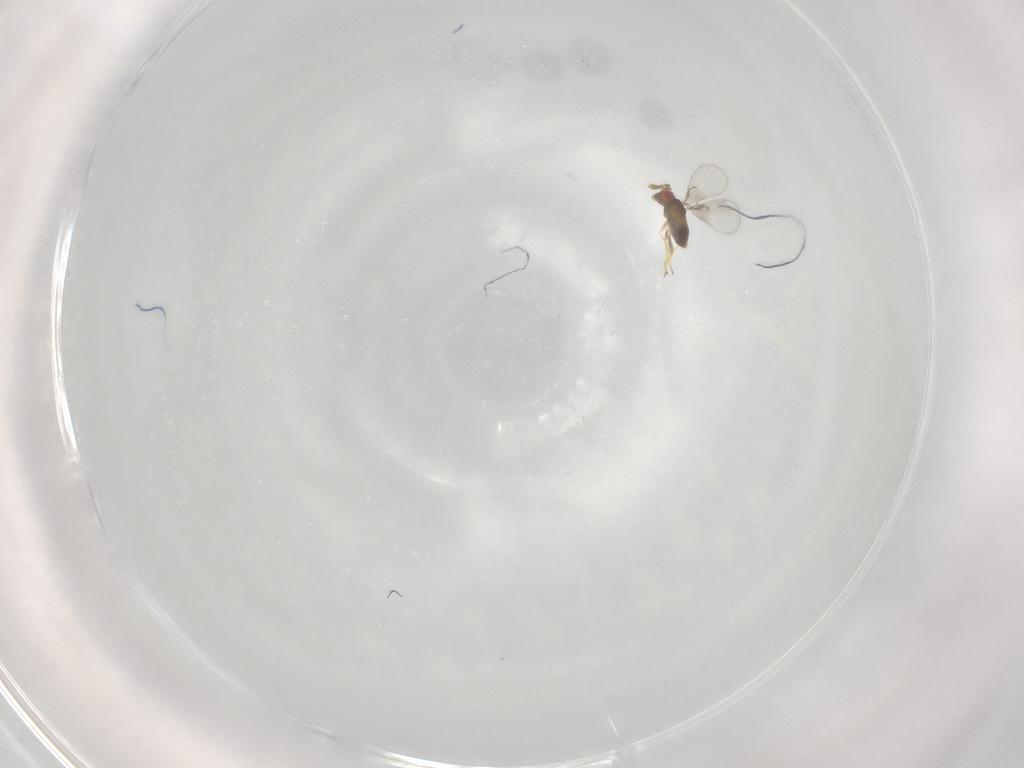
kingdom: Animalia
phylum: Arthropoda
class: Insecta
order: Hymenoptera
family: Trichogrammatidae
